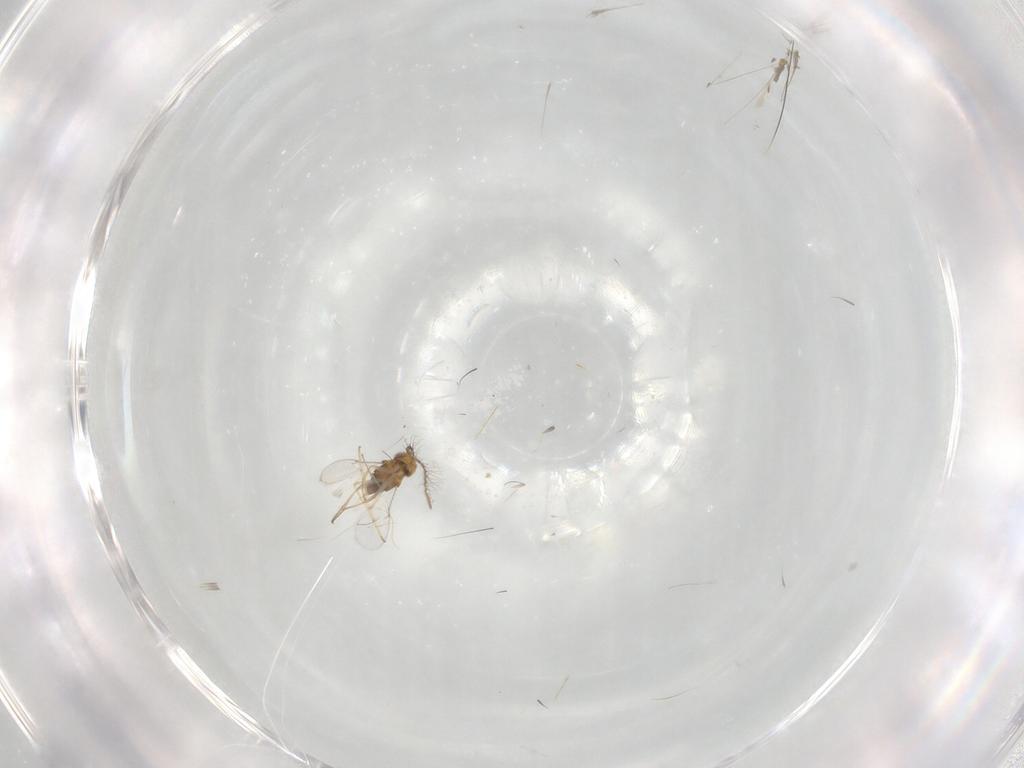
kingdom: Animalia
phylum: Arthropoda
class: Insecta
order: Hymenoptera
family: Encyrtidae
